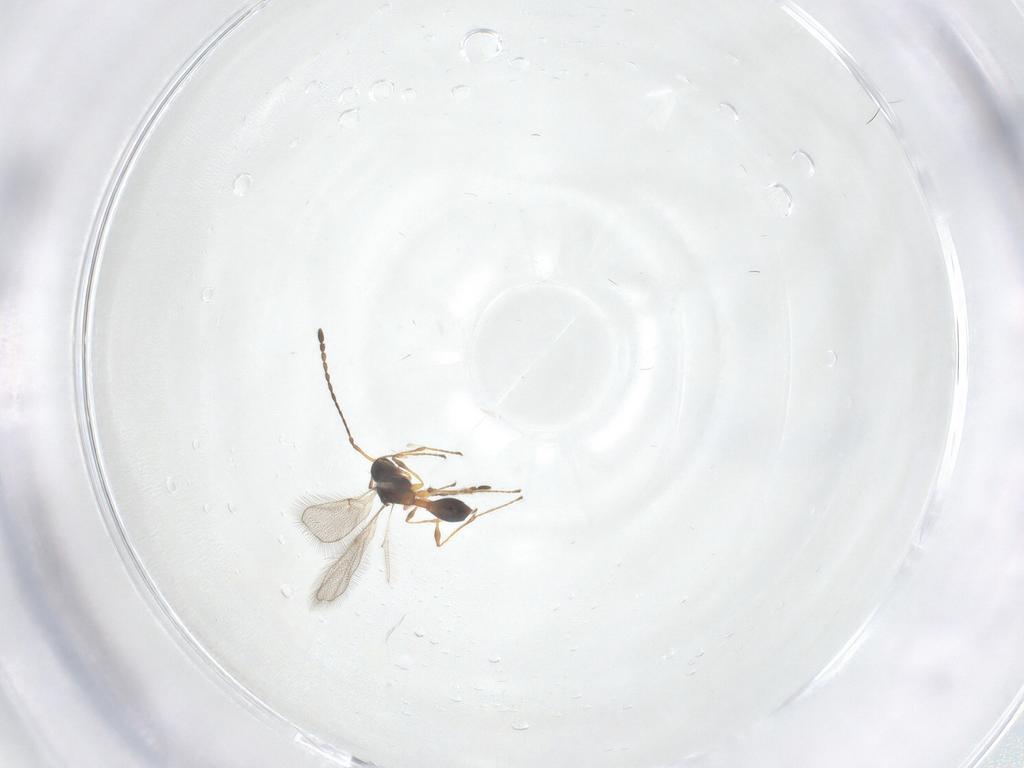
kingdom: Animalia
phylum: Arthropoda
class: Insecta
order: Hymenoptera
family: Diapriidae
